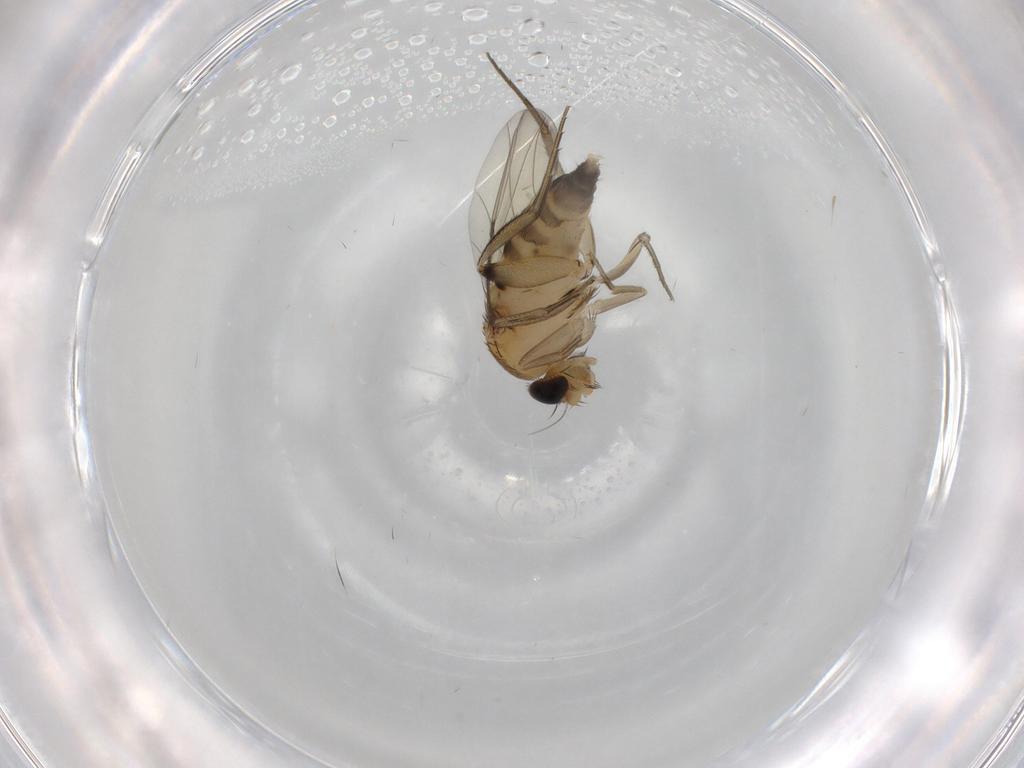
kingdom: Animalia
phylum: Arthropoda
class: Insecta
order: Diptera
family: Phoridae
